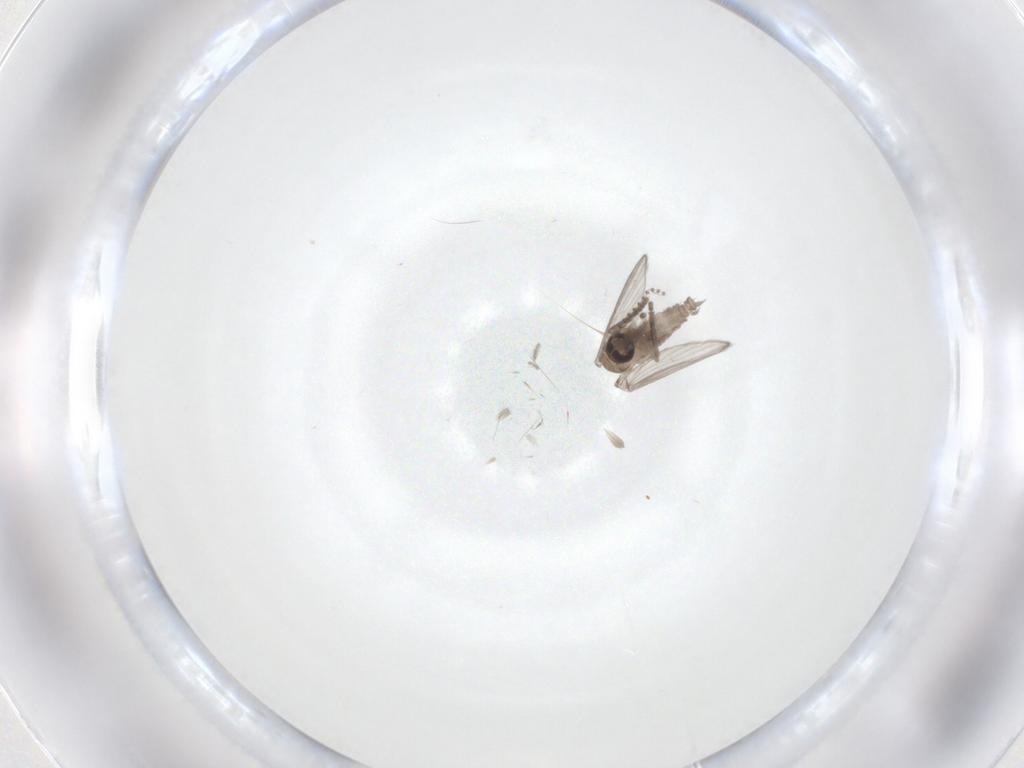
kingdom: Animalia
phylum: Arthropoda
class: Insecta
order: Diptera
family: Psychodidae
